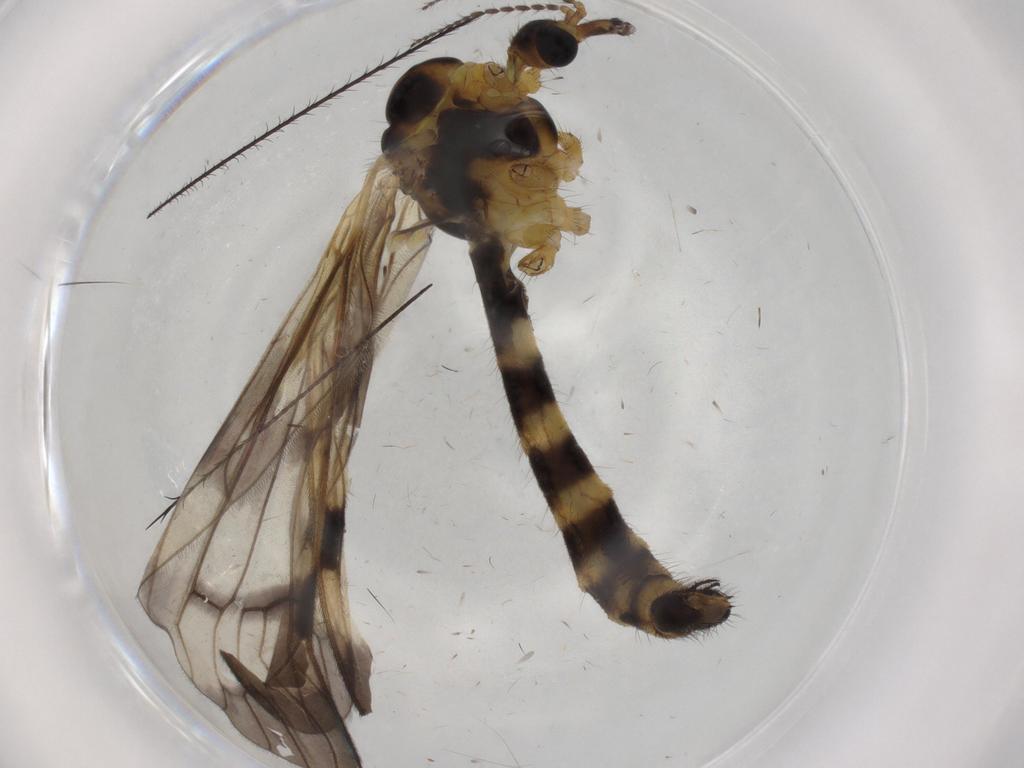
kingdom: Animalia
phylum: Arthropoda
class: Insecta
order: Diptera
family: Limoniidae
